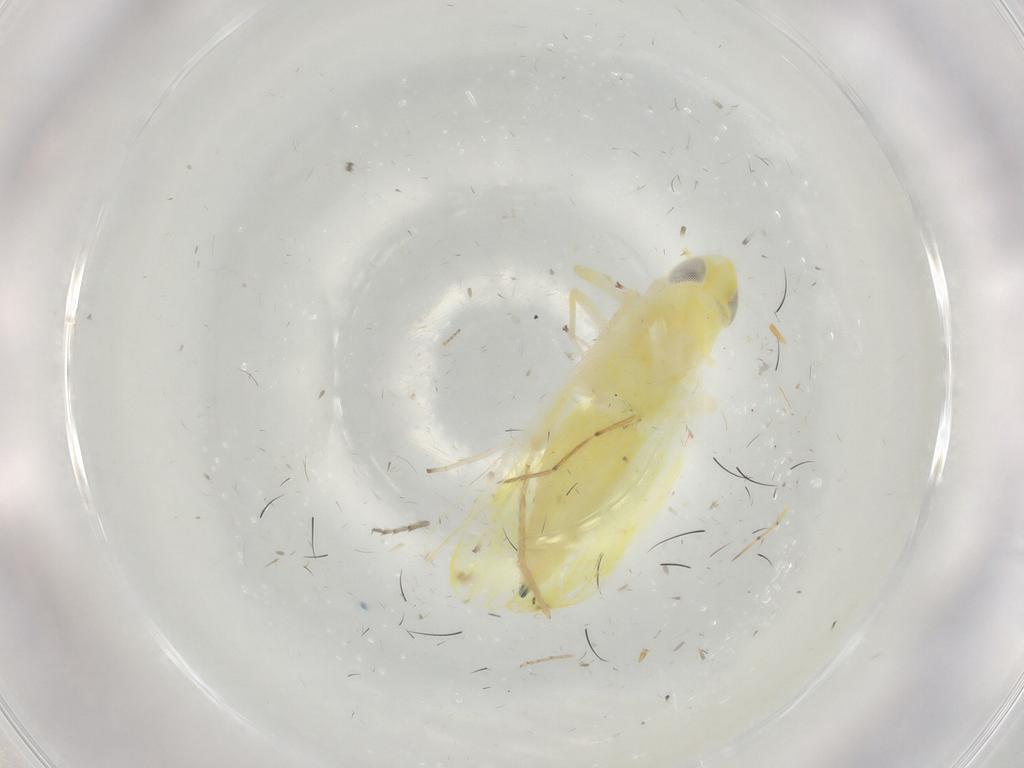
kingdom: Animalia
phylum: Arthropoda
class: Insecta
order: Hemiptera
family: Cicadellidae
